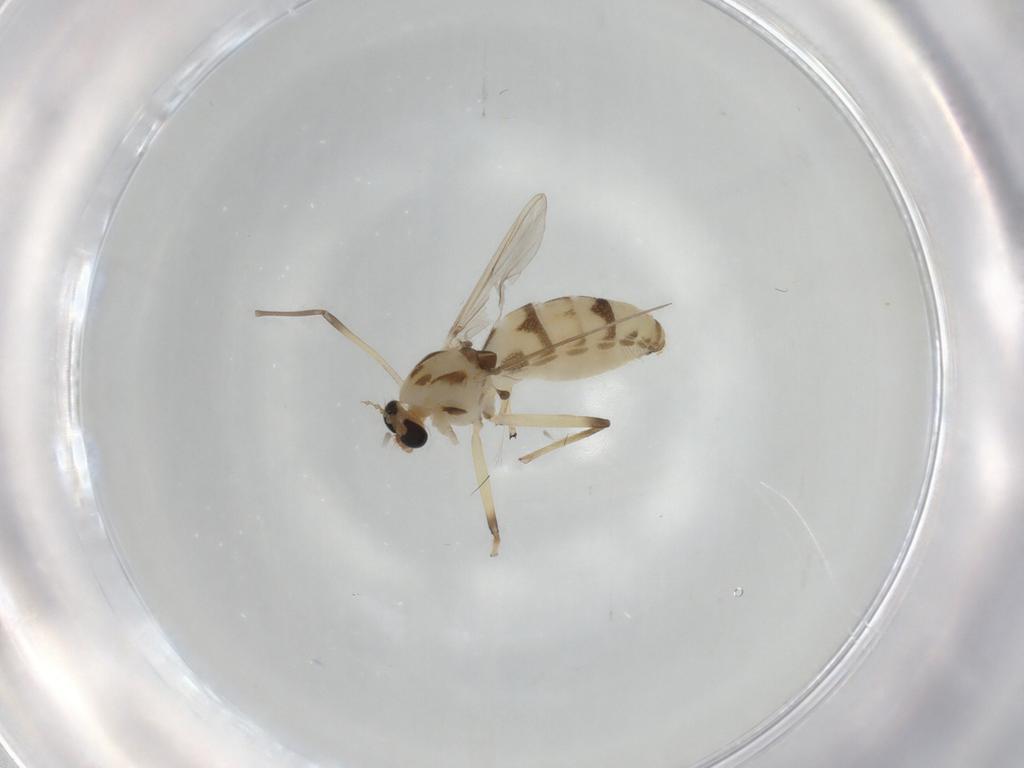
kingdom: Animalia
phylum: Arthropoda
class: Insecta
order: Diptera
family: Chironomidae
